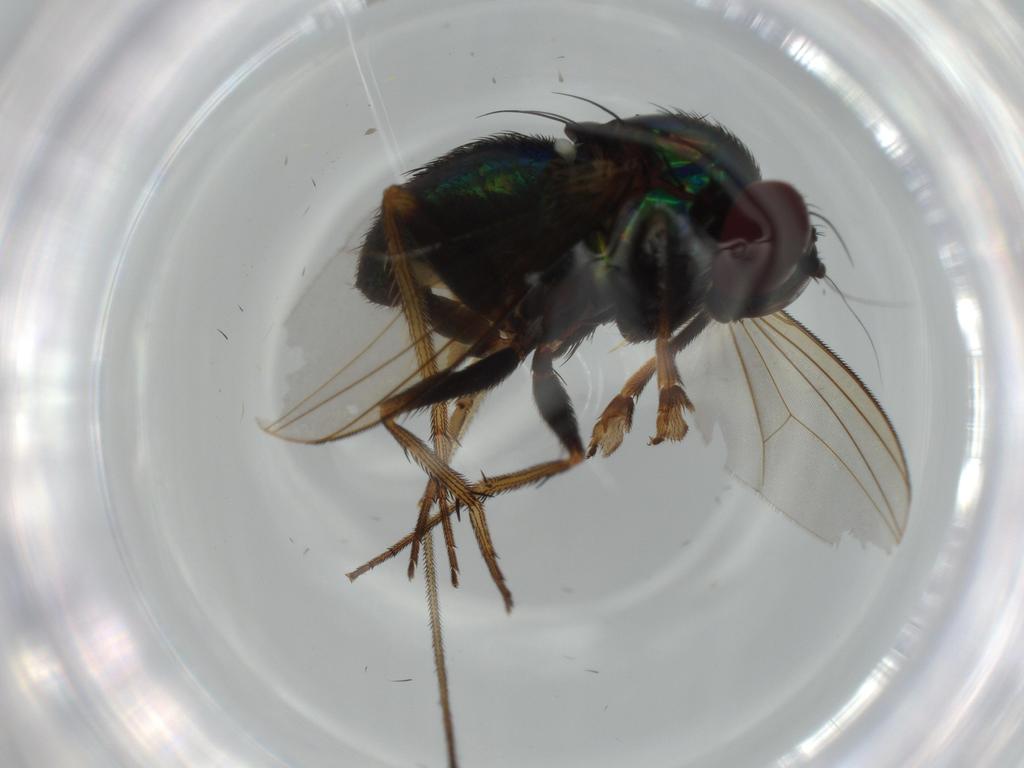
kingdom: Animalia
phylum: Arthropoda
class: Insecta
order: Diptera
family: Dolichopodidae
